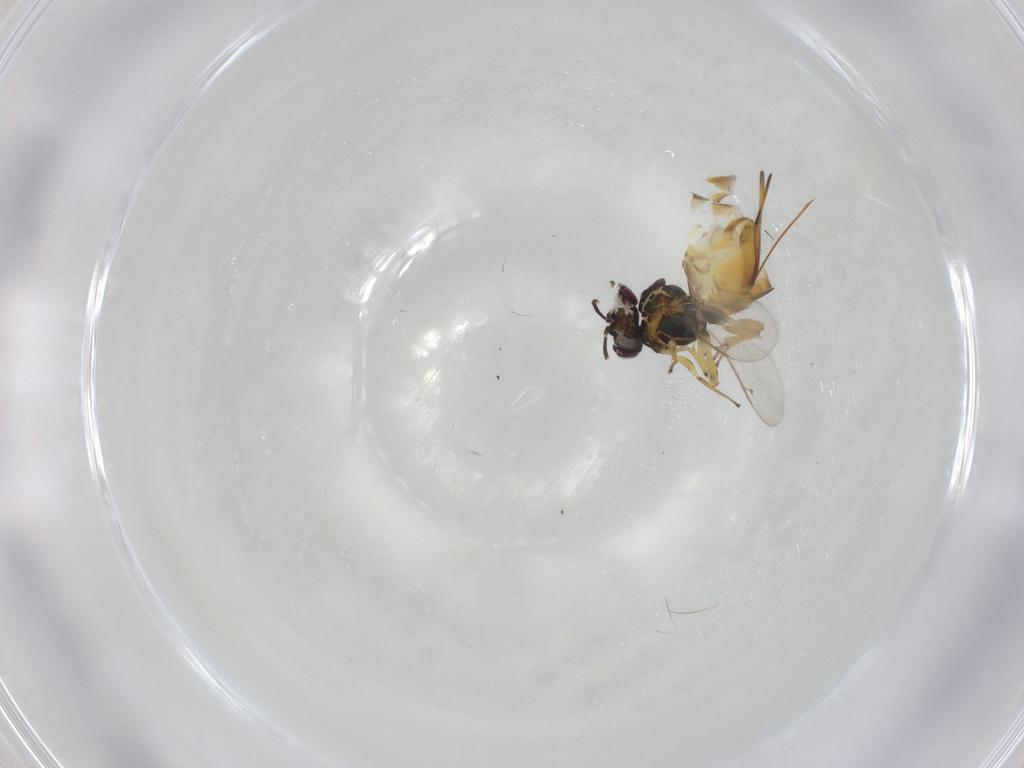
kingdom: Animalia
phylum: Arthropoda
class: Insecta
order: Hymenoptera
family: Eupelmidae
